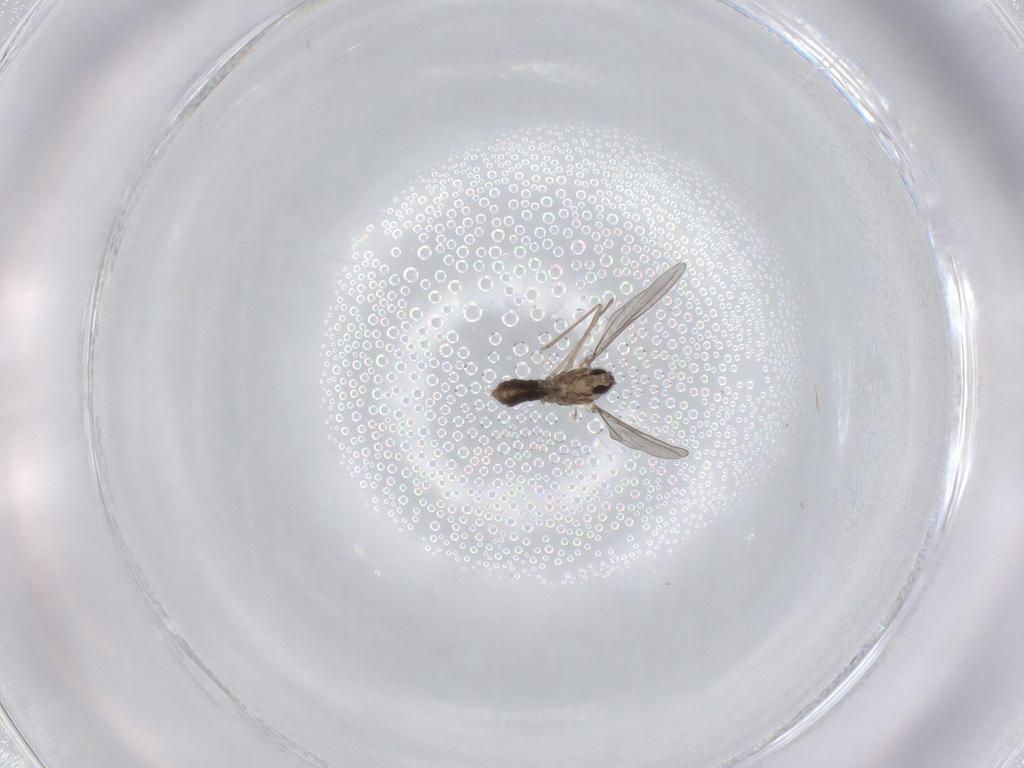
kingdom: Animalia
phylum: Arthropoda
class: Insecta
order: Diptera
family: Cecidomyiidae
